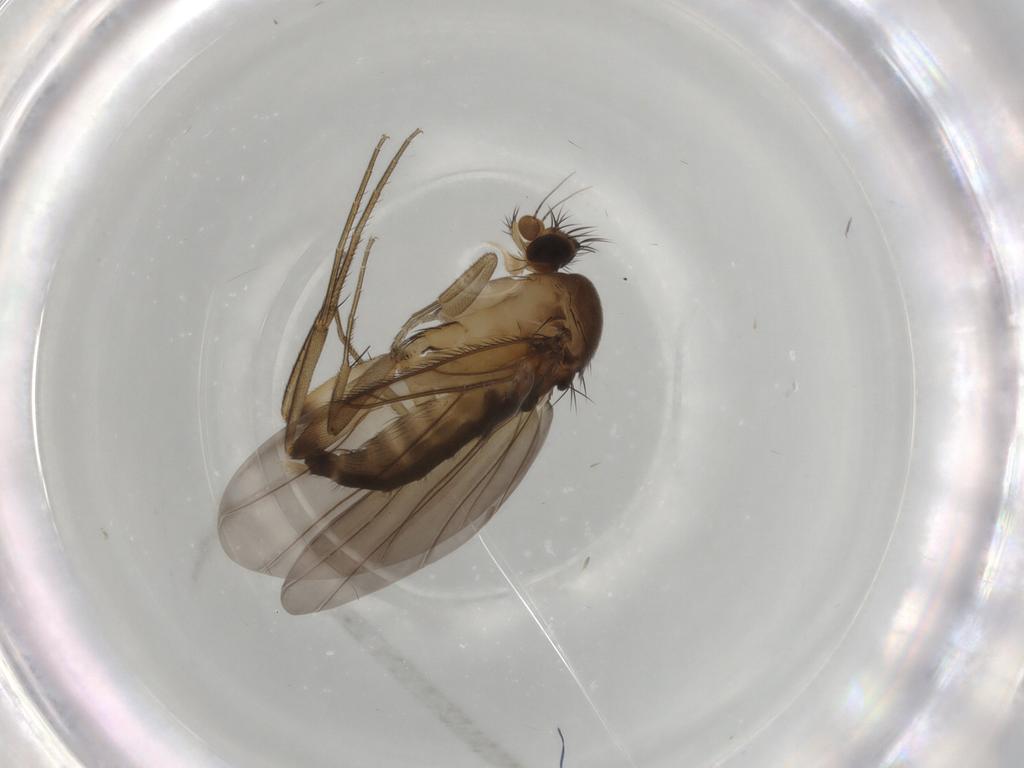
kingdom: Animalia
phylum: Arthropoda
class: Insecta
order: Diptera
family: Phoridae
